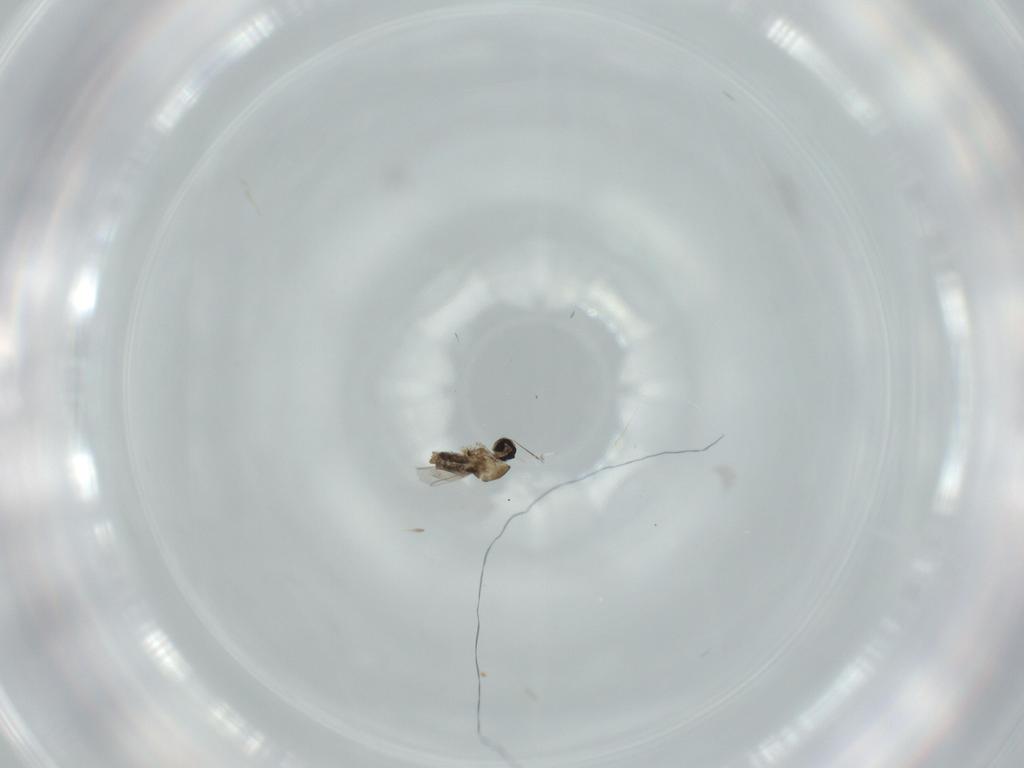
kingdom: Animalia
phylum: Arthropoda
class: Insecta
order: Diptera
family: Cecidomyiidae
